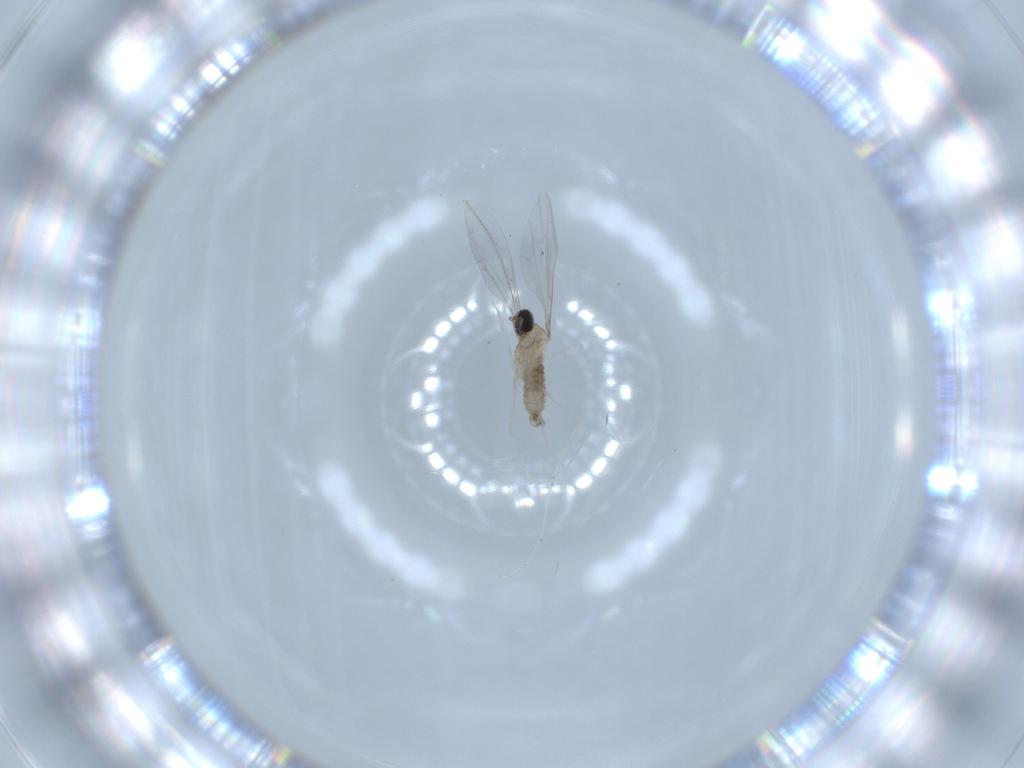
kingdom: Animalia
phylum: Arthropoda
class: Insecta
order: Diptera
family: Cecidomyiidae
